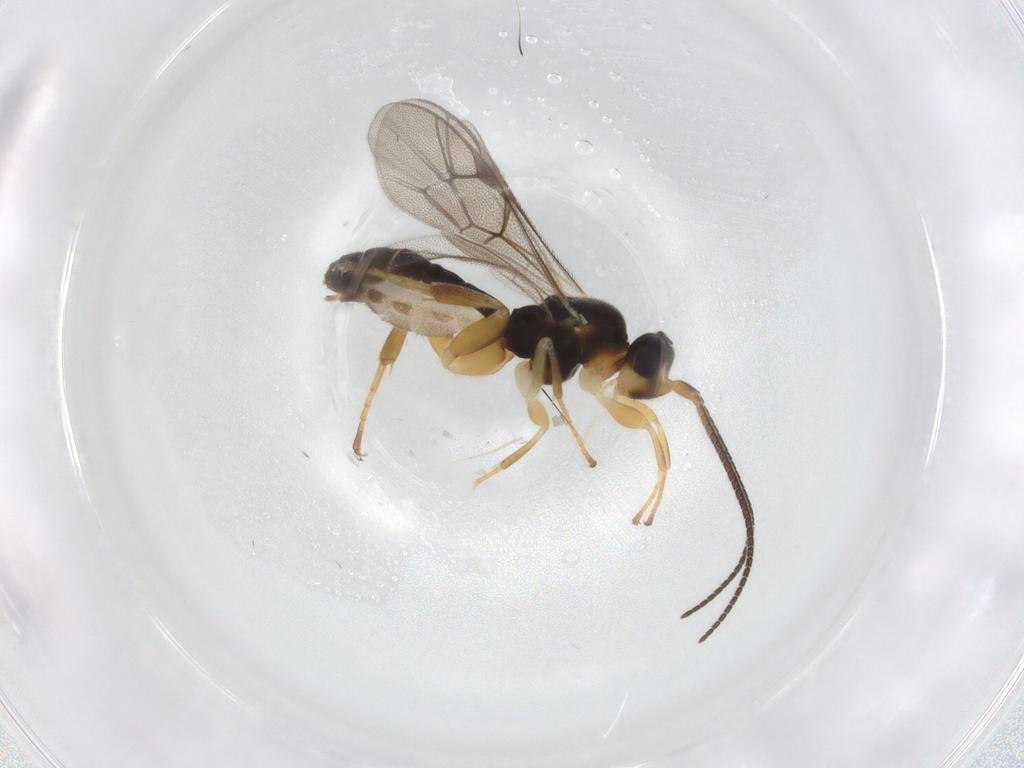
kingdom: Animalia
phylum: Arthropoda
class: Insecta
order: Hymenoptera
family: Ichneumonidae
